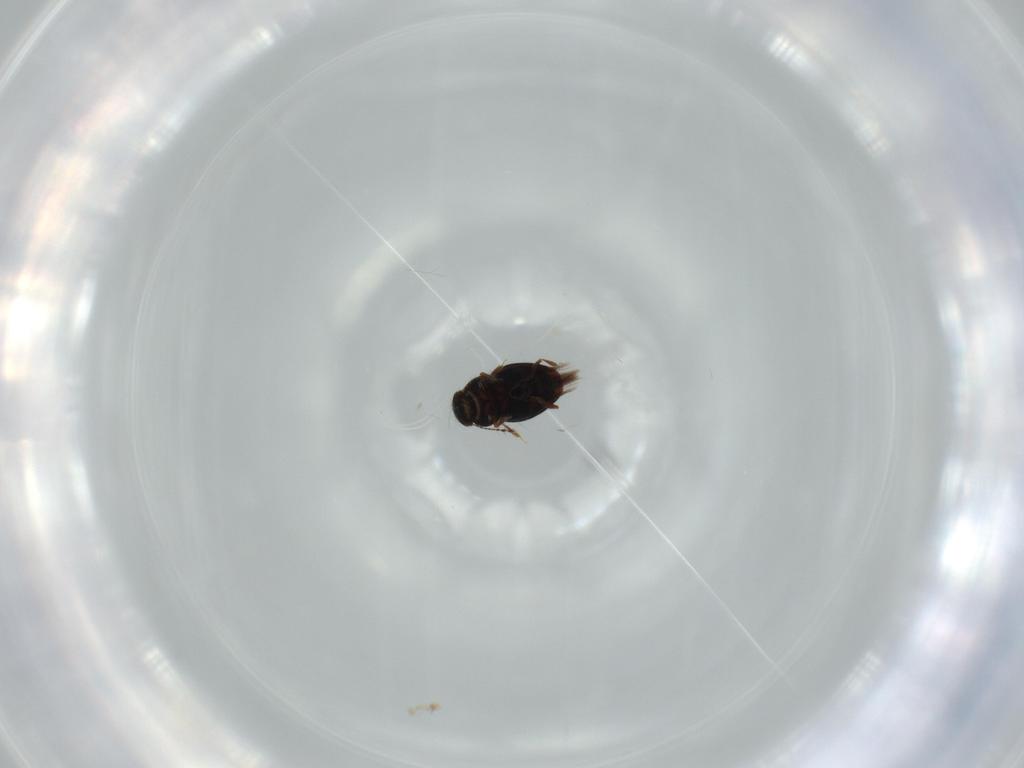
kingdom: Animalia
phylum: Arthropoda
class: Insecta
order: Coleoptera
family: Ptiliidae
